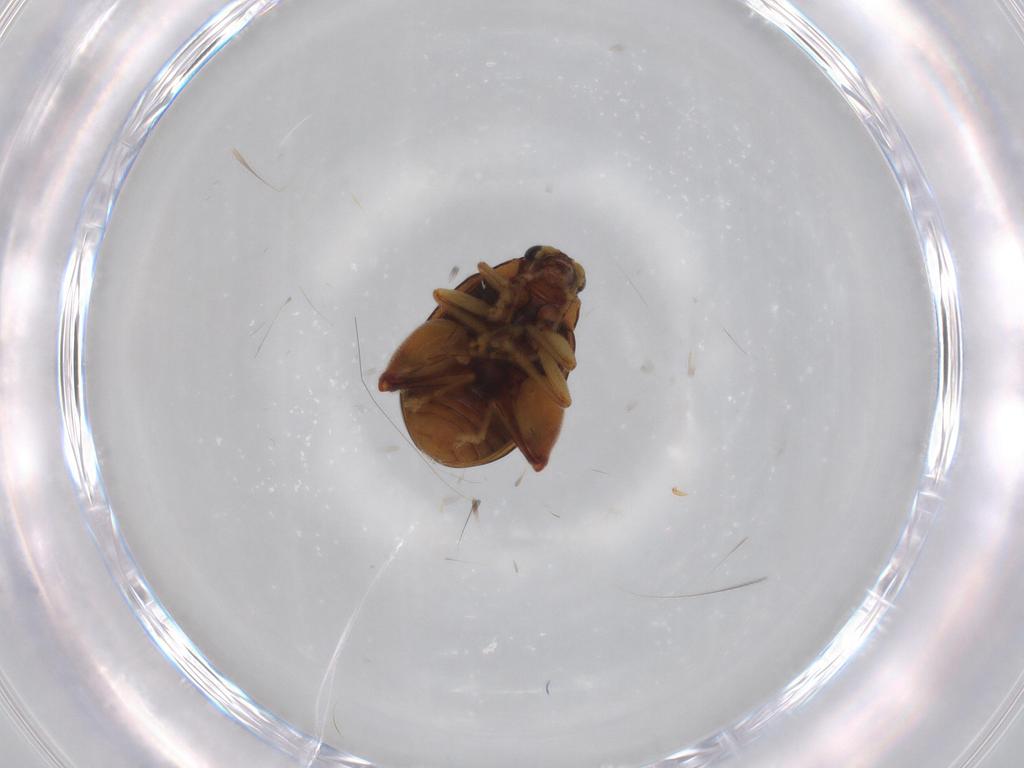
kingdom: Animalia
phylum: Arthropoda
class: Insecta
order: Coleoptera
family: Chrysomelidae
